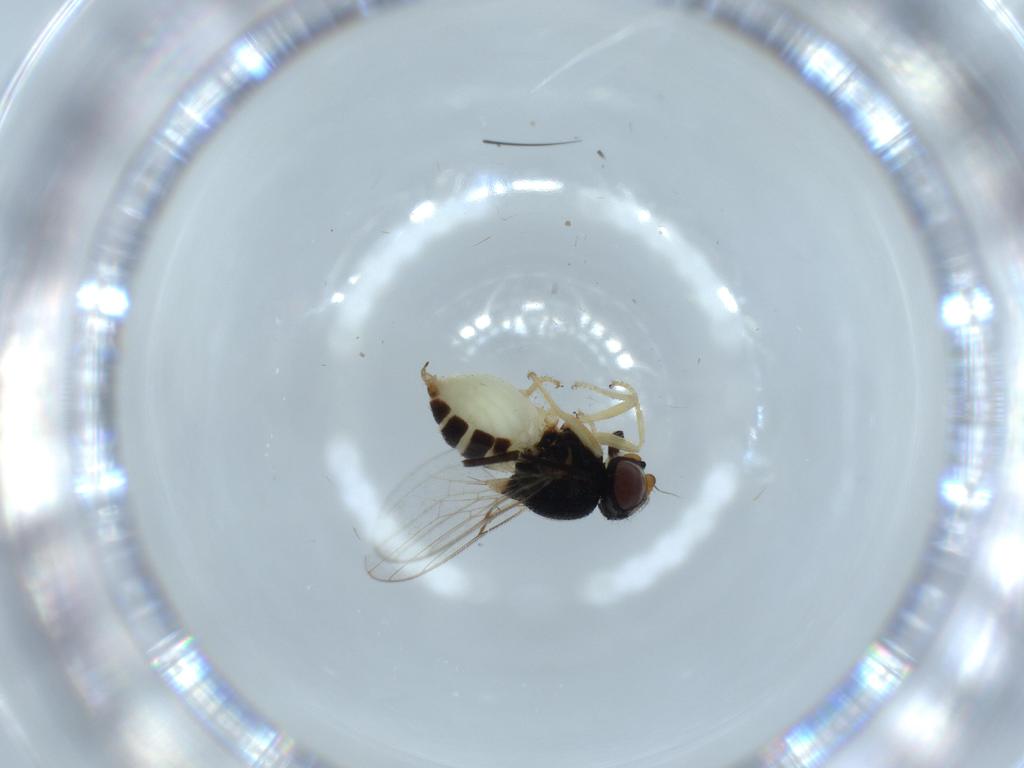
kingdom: Animalia
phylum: Arthropoda
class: Insecta
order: Diptera
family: Chloropidae
